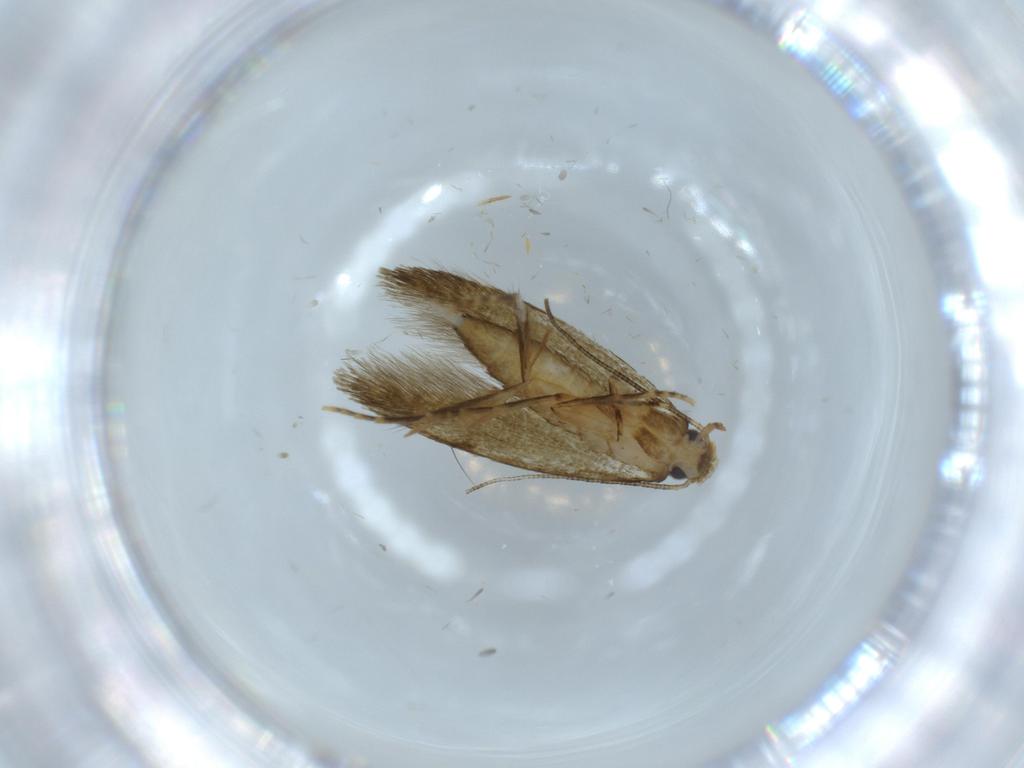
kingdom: Animalia
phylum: Arthropoda
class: Insecta
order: Lepidoptera
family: Tineidae
